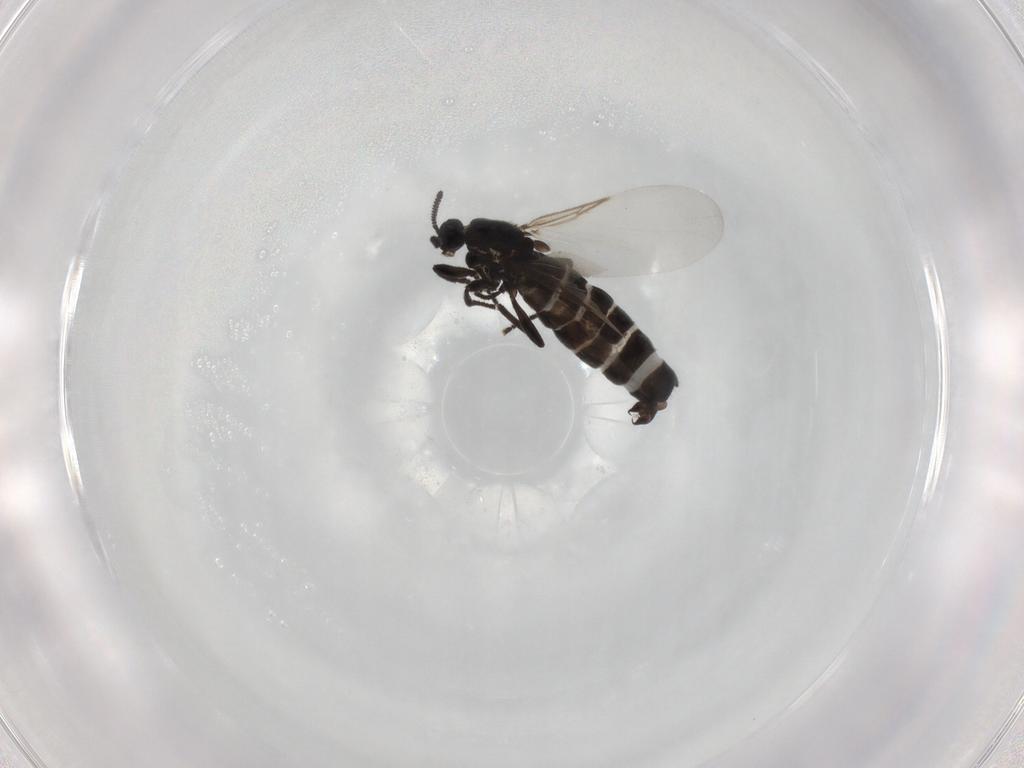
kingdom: Animalia
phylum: Arthropoda
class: Insecta
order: Diptera
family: Scatopsidae
